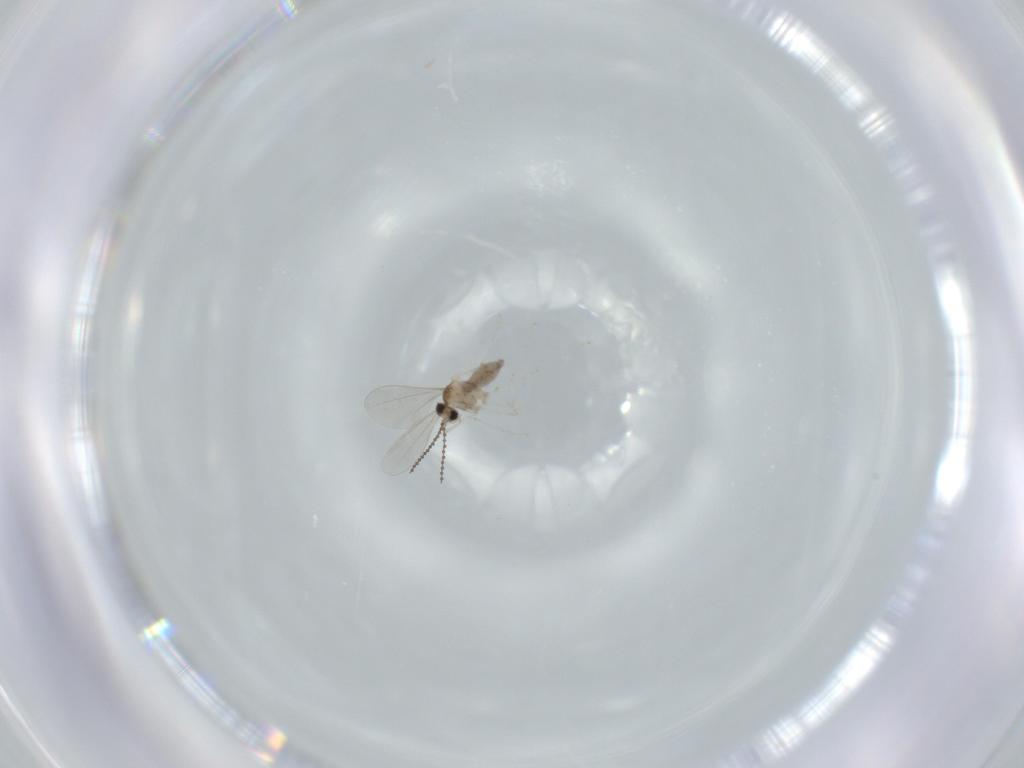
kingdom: Animalia
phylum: Arthropoda
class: Insecta
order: Diptera
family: Cecidomyiidae
